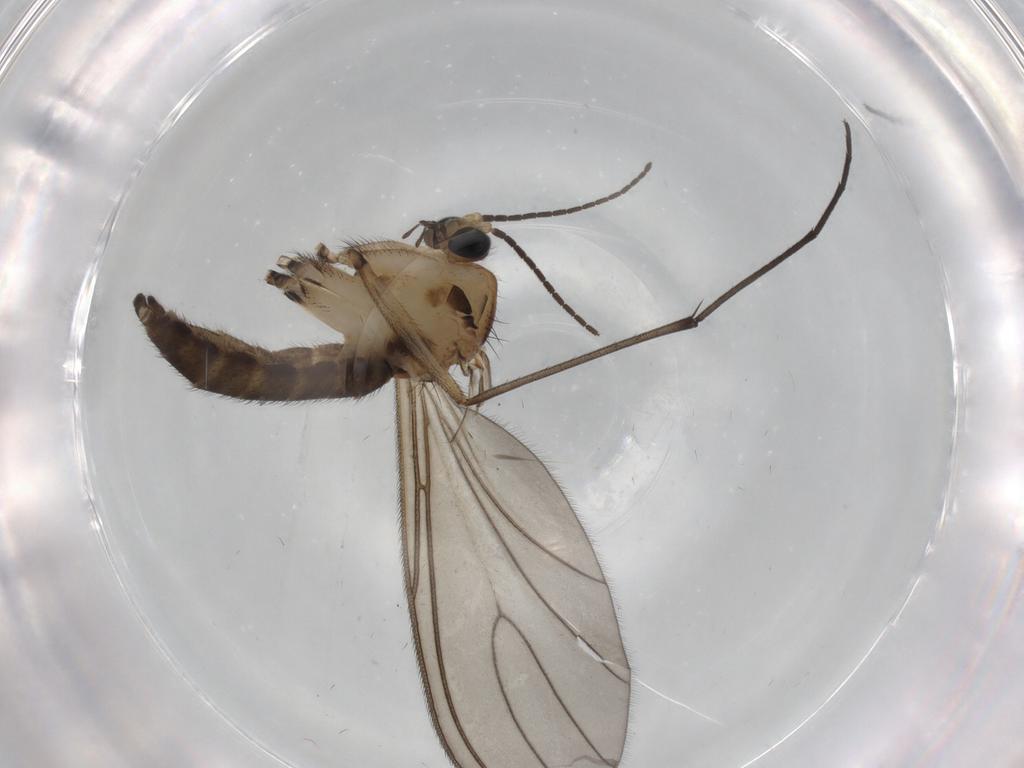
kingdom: Animalia
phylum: Arthropoda
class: Insecta
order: Diptera
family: Sciaridae
